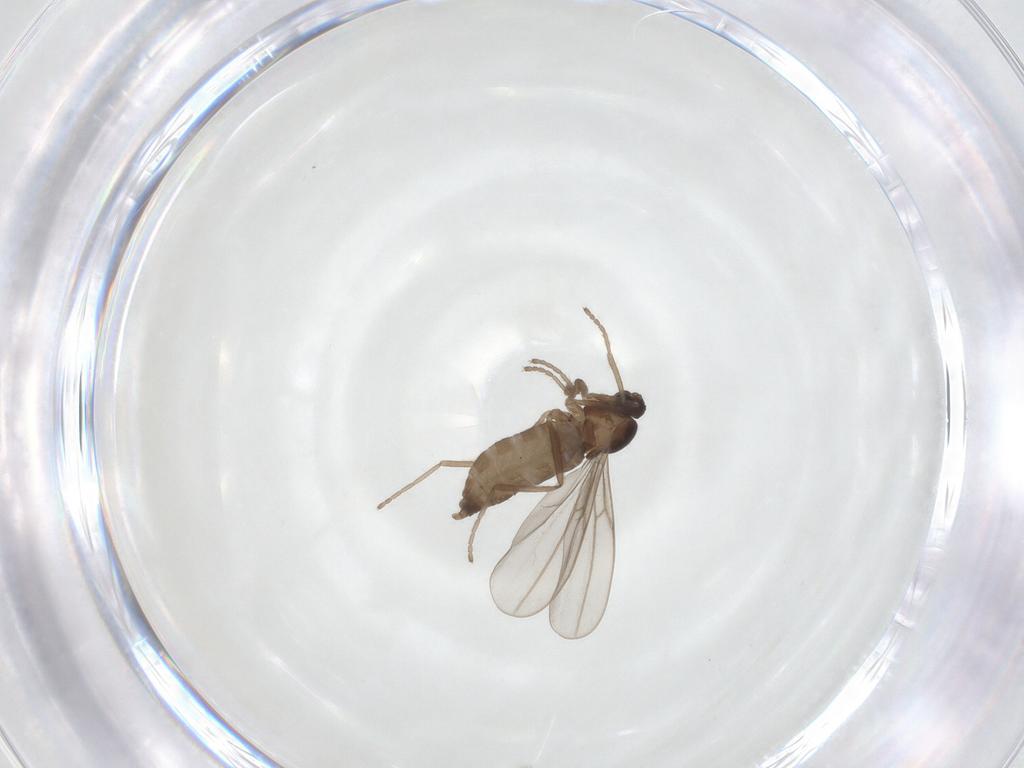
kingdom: Animalia
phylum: Arthropoda
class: Insecta
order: Diptera
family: Cecidomyiidae
